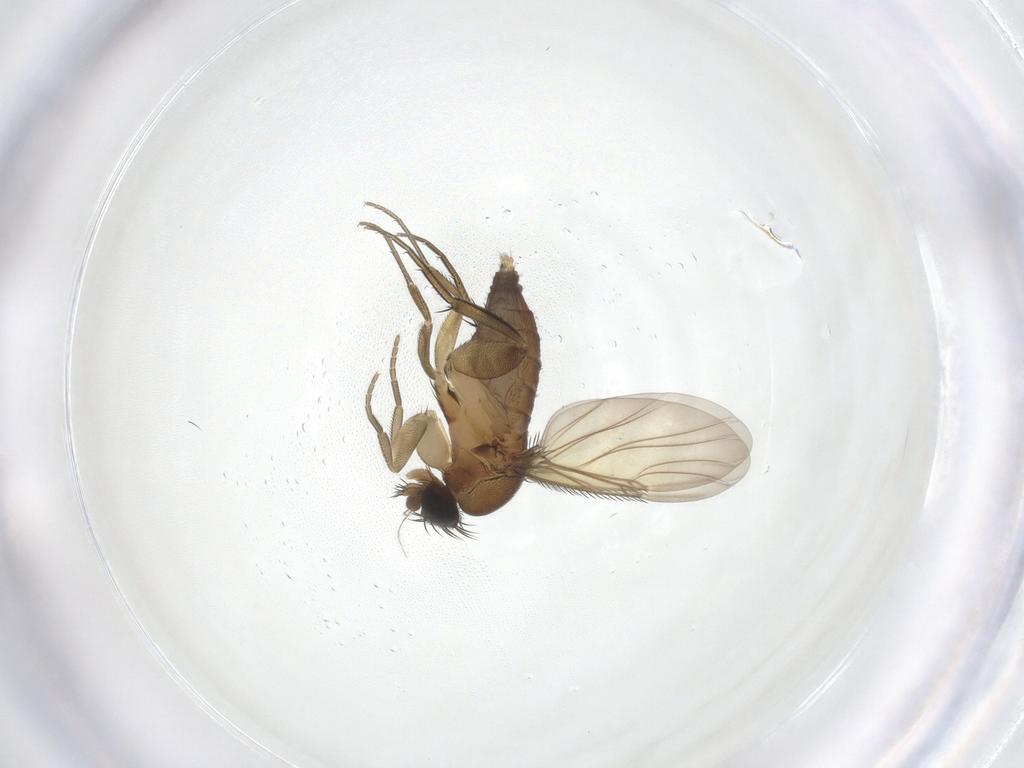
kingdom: Animalia
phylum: Arthropoda
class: Insecta
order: Diptera
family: Phoridae
